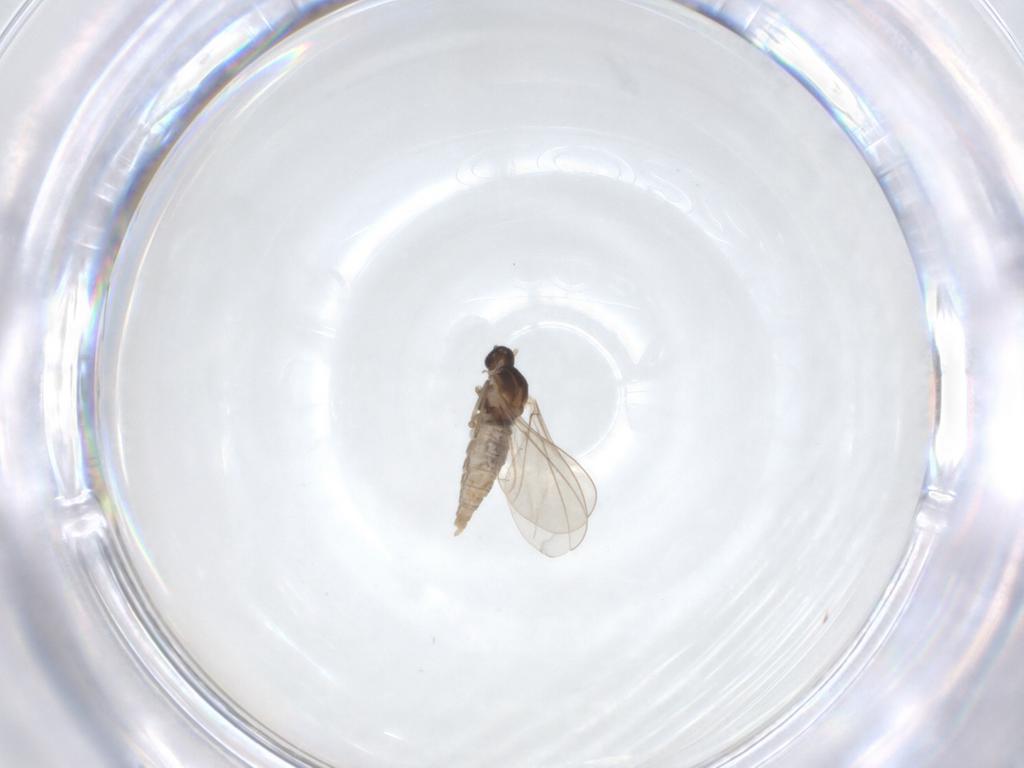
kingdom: Animalia
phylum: Arthropoda
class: Insecta
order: Diptera
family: Cecidomyiidae
